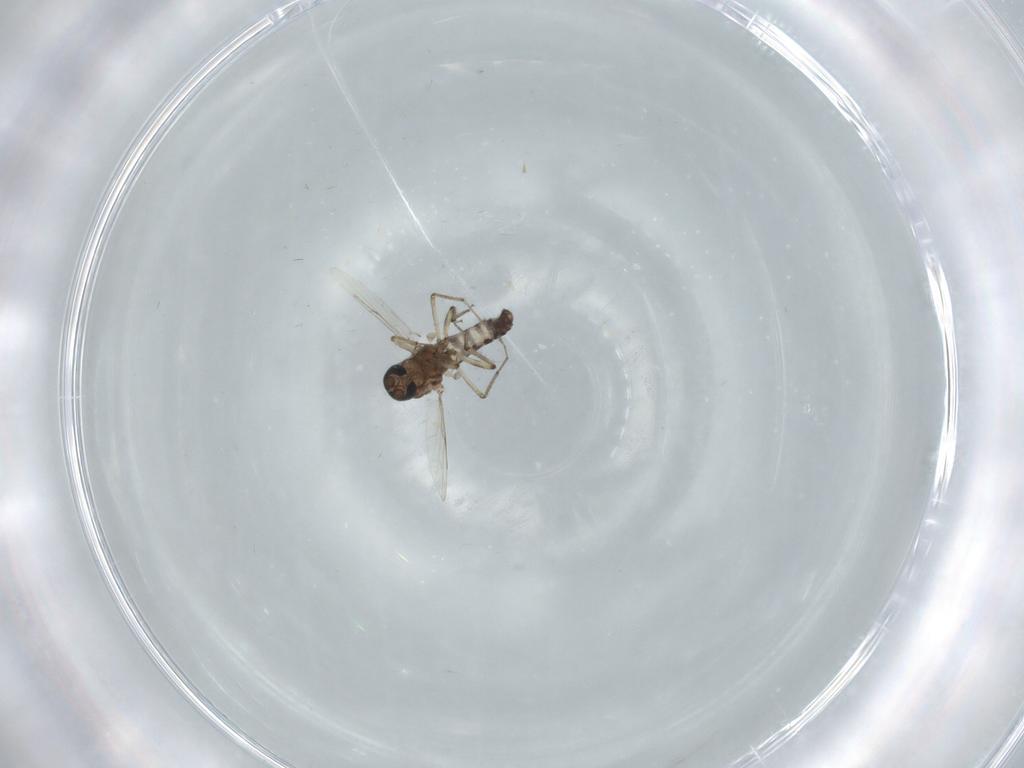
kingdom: Animalia
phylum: Arthropoda
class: Insecta
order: Diptera
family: Ceratopogonidae
